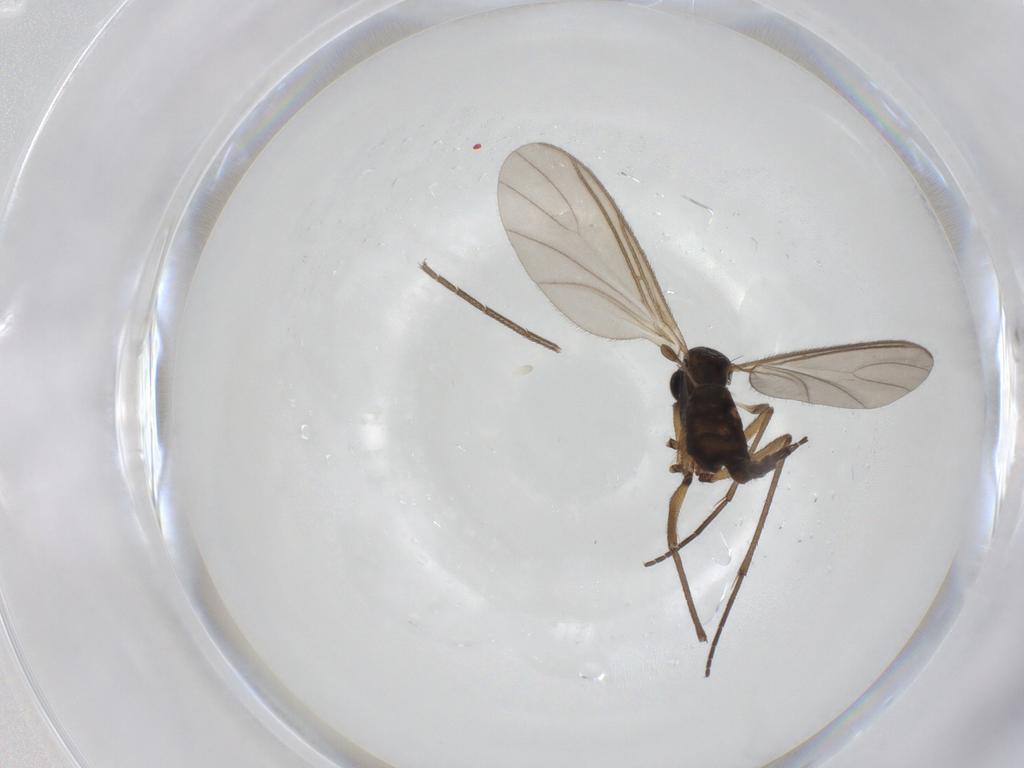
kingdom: Animalia
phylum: Arthropoda
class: Insecta
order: Diptera
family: Sciaridae
